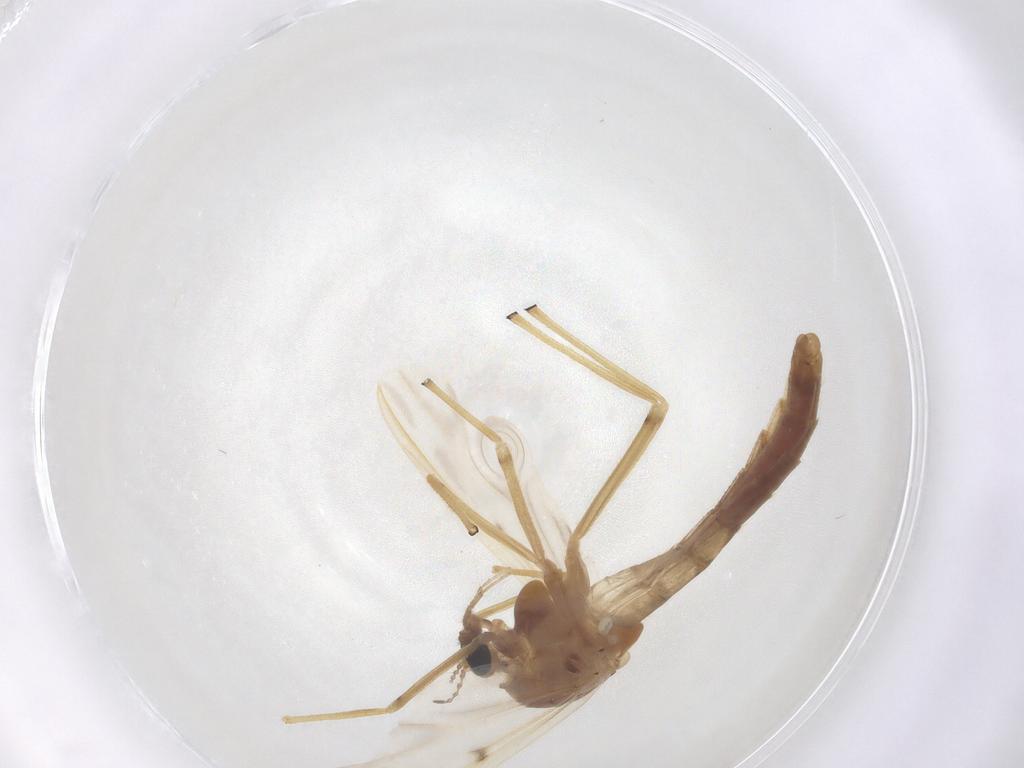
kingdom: Animalia
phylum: Arthropoda
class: Insecta
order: Diptera
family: Chironomidae
